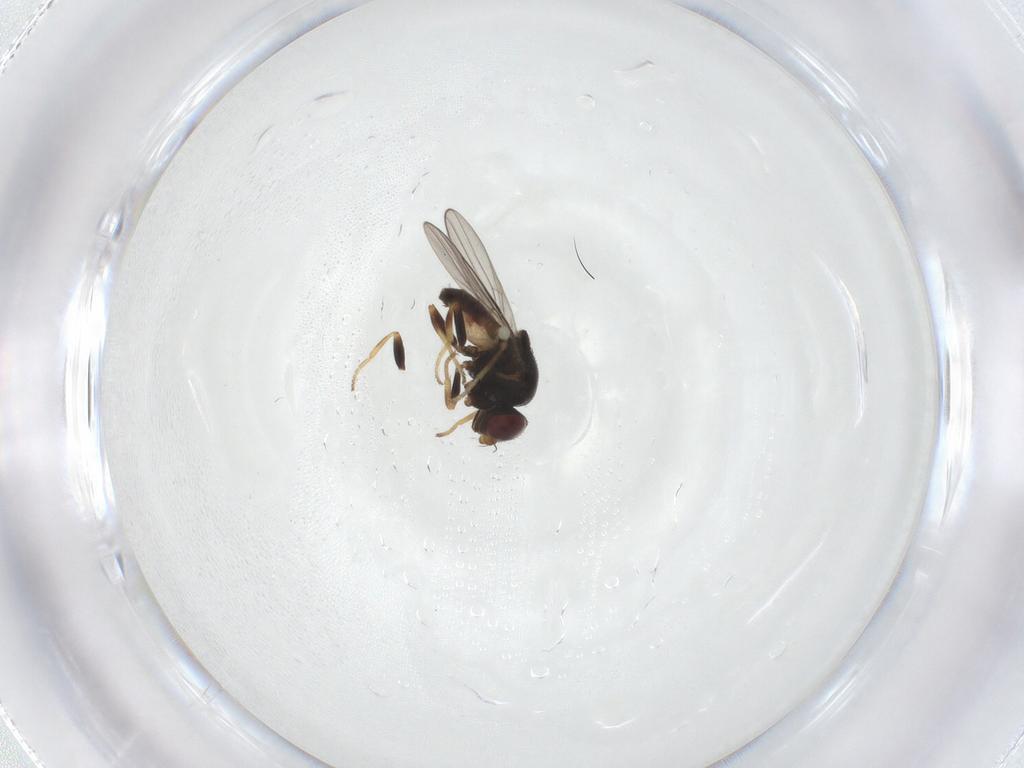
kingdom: Animalia
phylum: Arthropoda
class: Insecta
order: Diptera
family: Chloropidae
